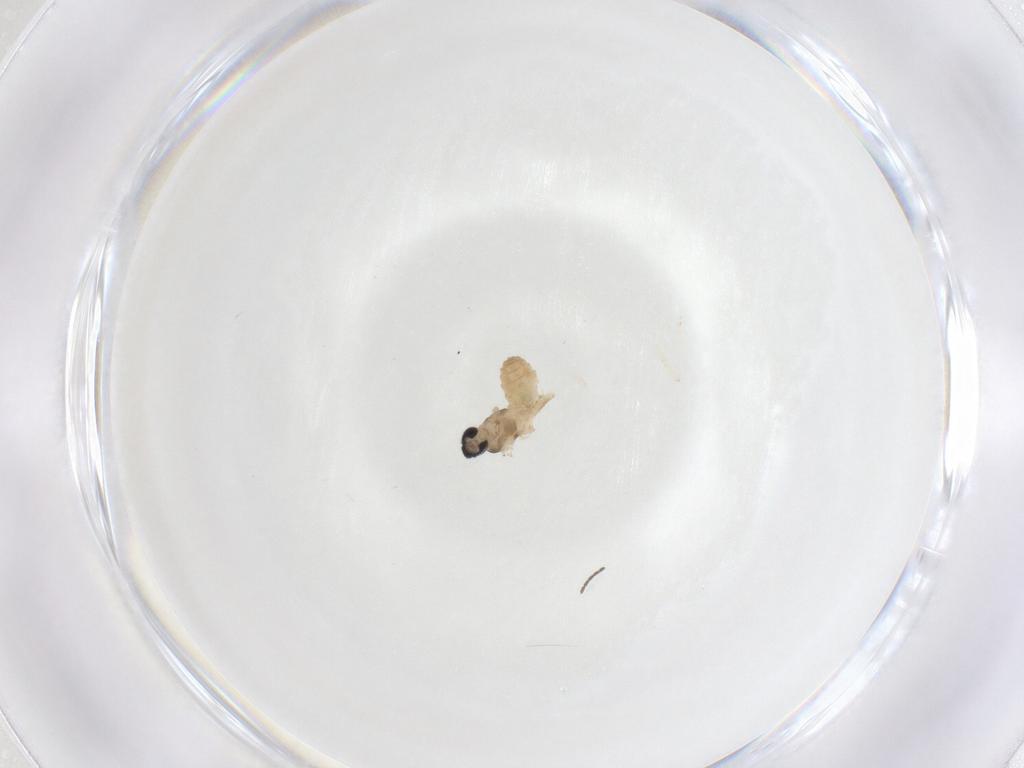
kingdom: Animalia
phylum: Arthropoda
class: Insecta
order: Diptera
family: Cecidomyiidae
